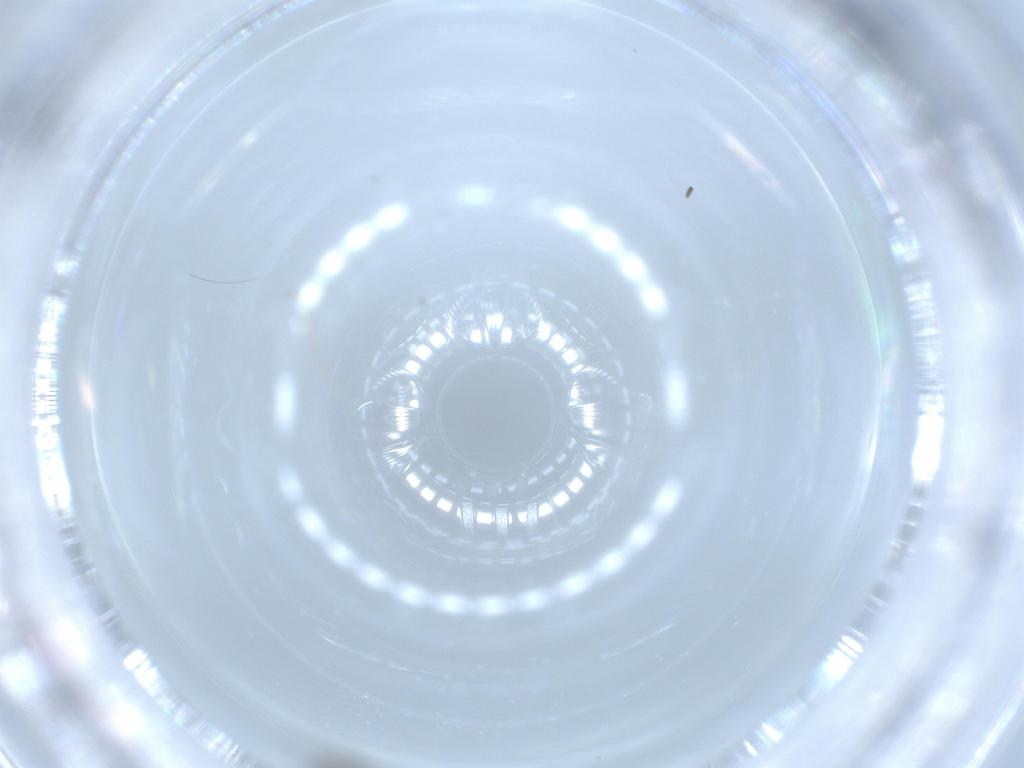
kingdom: Animalia
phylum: Arthropoda
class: Insecta
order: Diptera
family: Chironomidae
